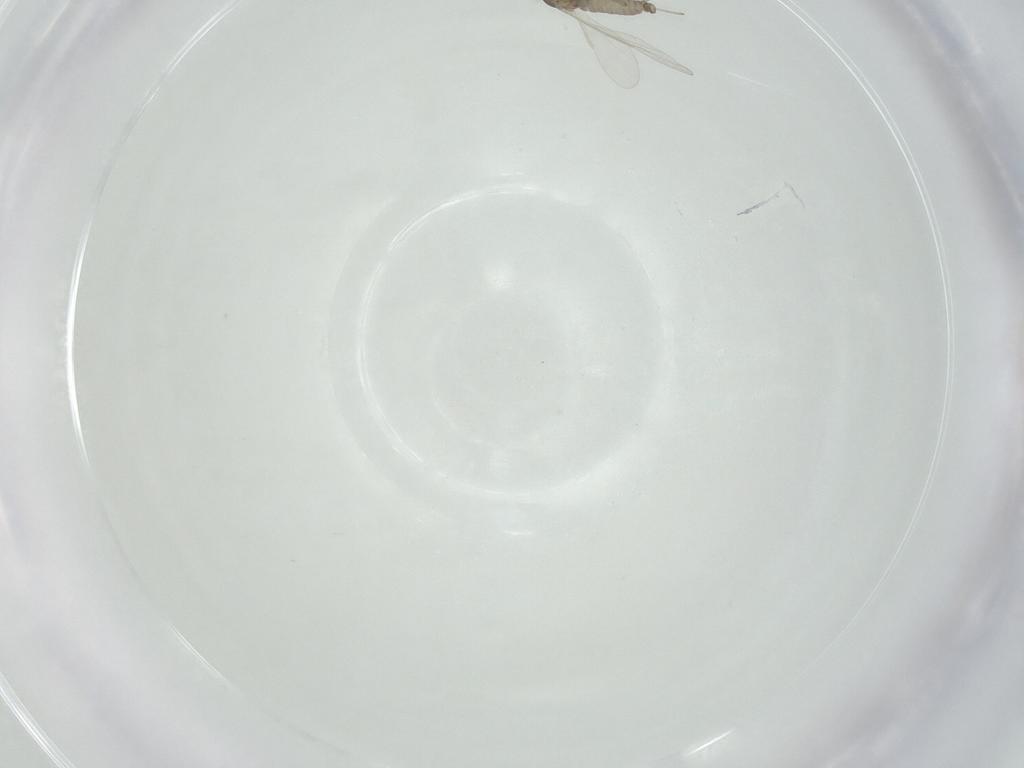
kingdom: Animalia
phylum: Arthropoda
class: Insecta
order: Diptera
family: Cecidomyiidae
